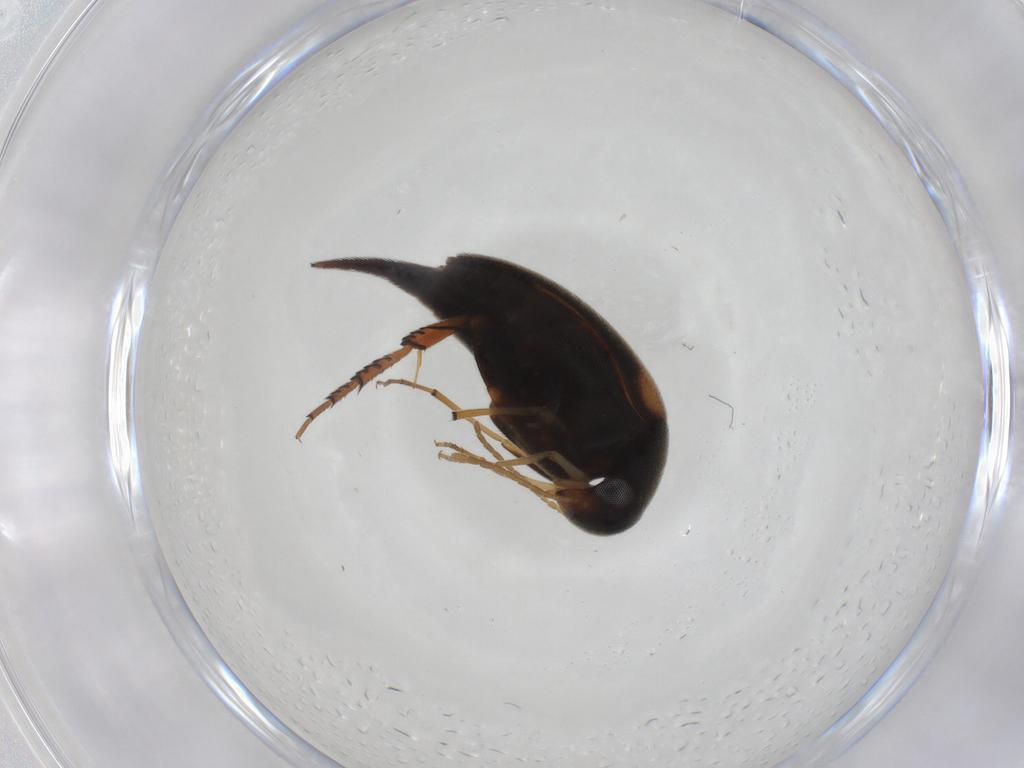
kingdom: Animalia
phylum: Arthropoda
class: Insecta
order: Coleoptera
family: Mordellidae
